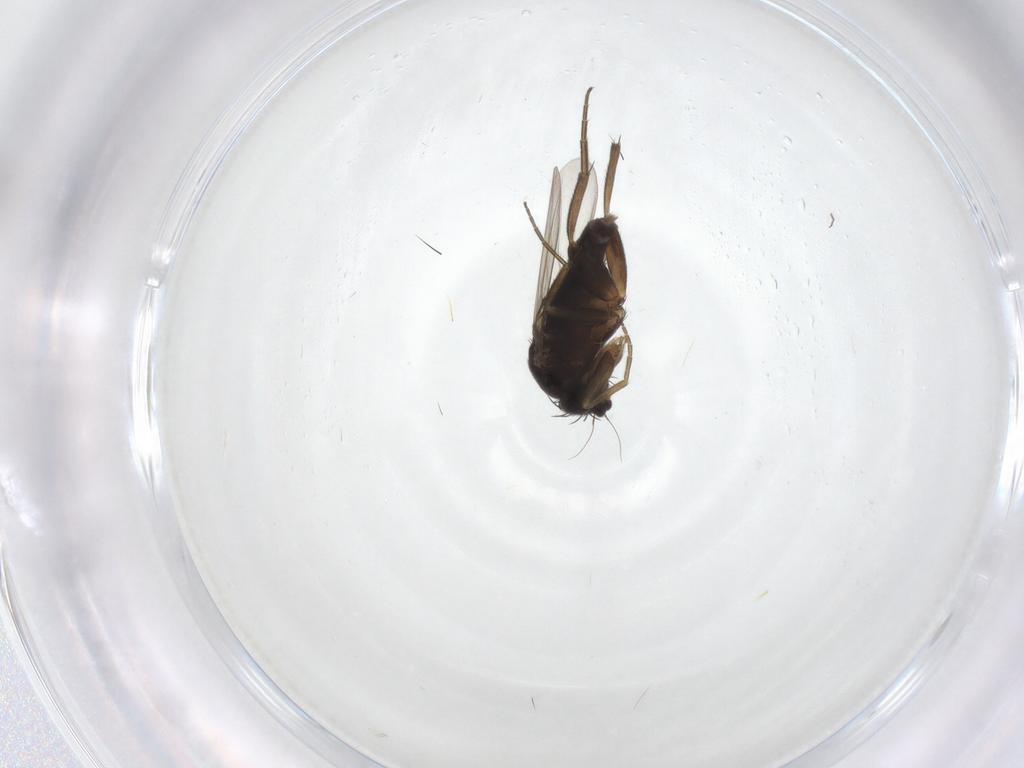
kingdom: Animalia
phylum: Arthropoda
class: Insecta
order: Diptera
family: Phoridae
